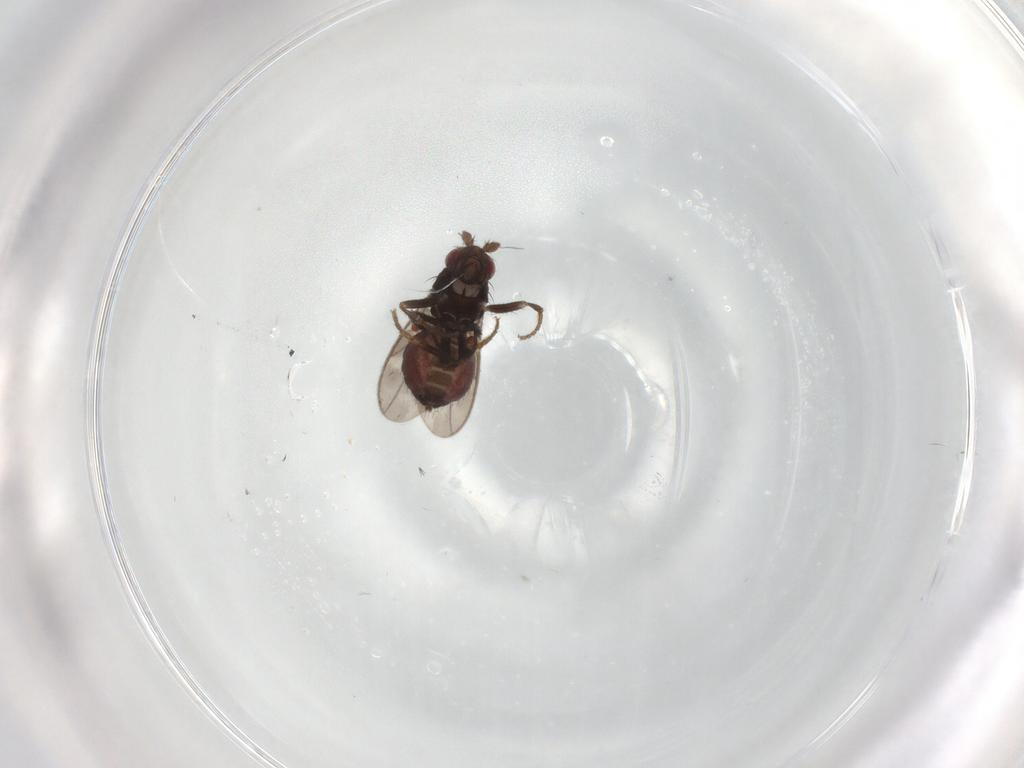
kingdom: Animalia
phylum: Arthropoda
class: Insecta
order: Diptera
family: Sphaeroceridae
